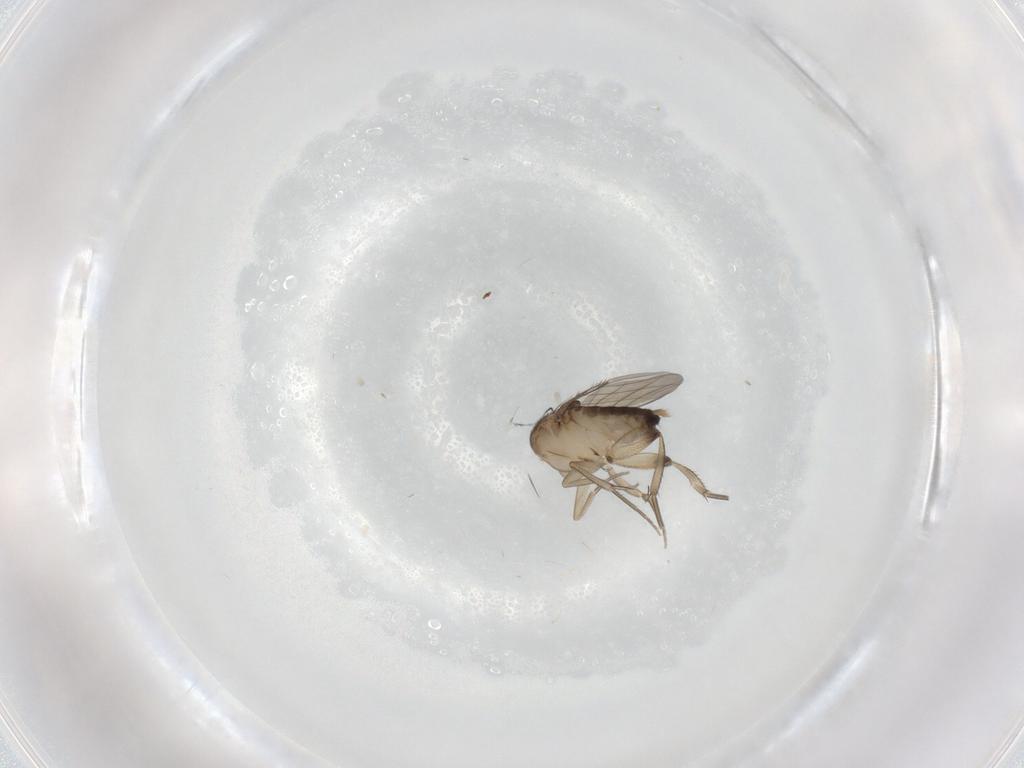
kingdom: Animalia
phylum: Arthropoda
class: Insecta
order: Diptera
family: Phoridae
